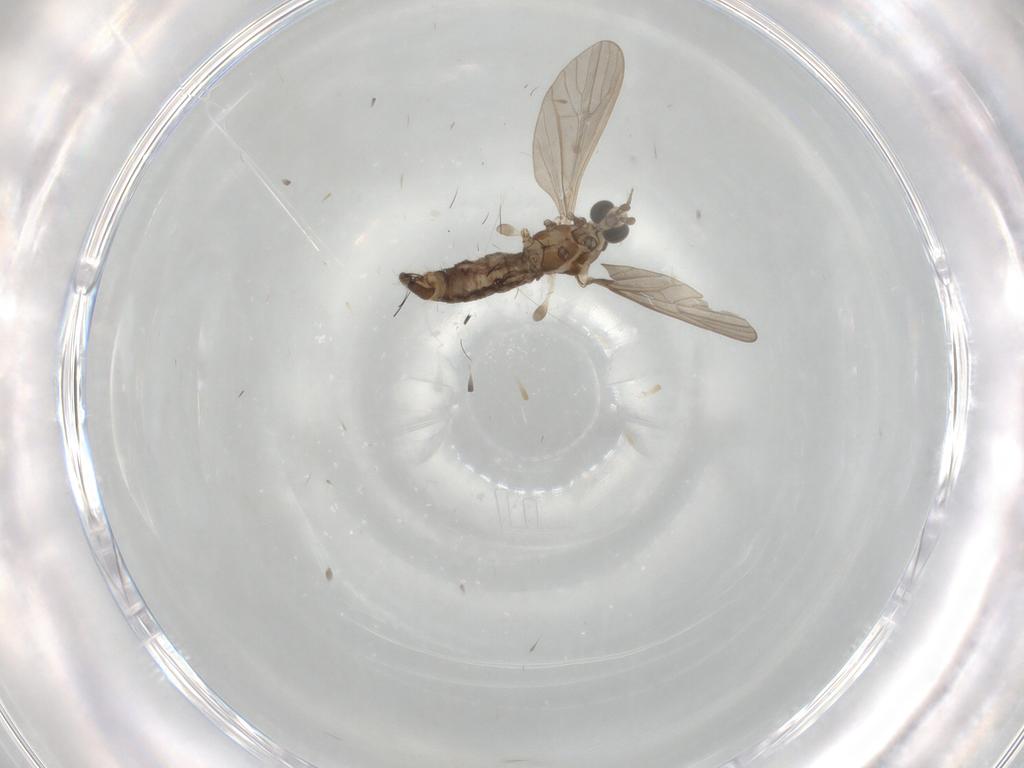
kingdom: Animalia
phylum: Arthropoda
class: Insecta
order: Diptera
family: Limoniidae
